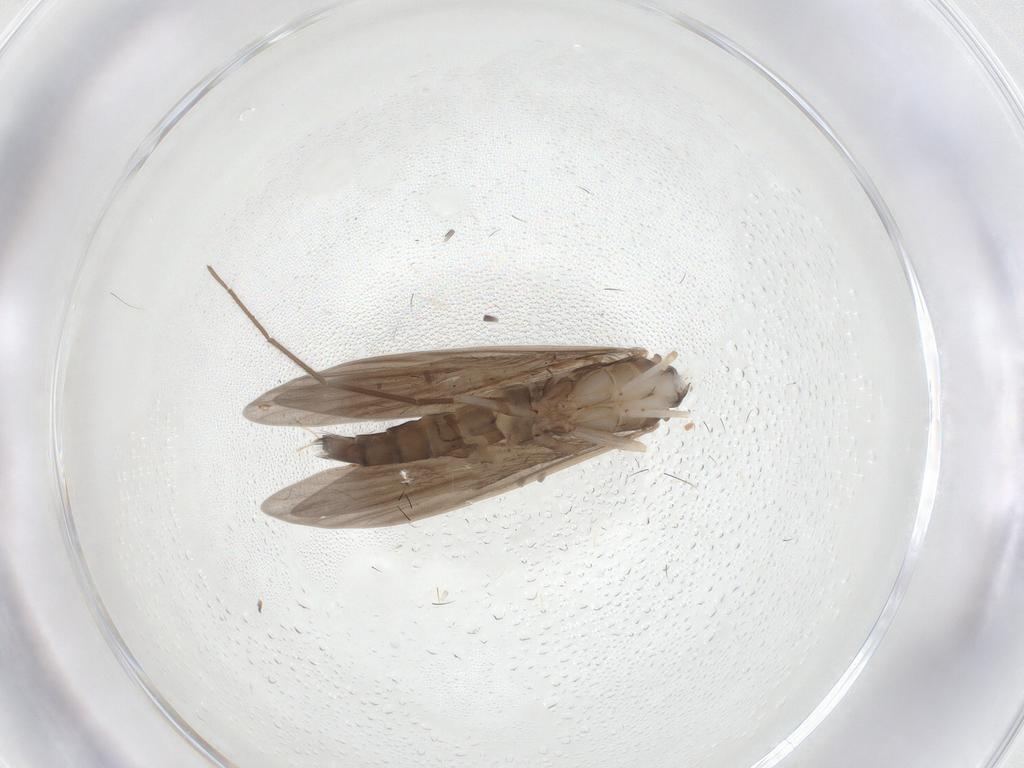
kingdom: Animalia
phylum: Arthropoda
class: Insecta
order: Trichoptera
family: Xiphocentronidae
